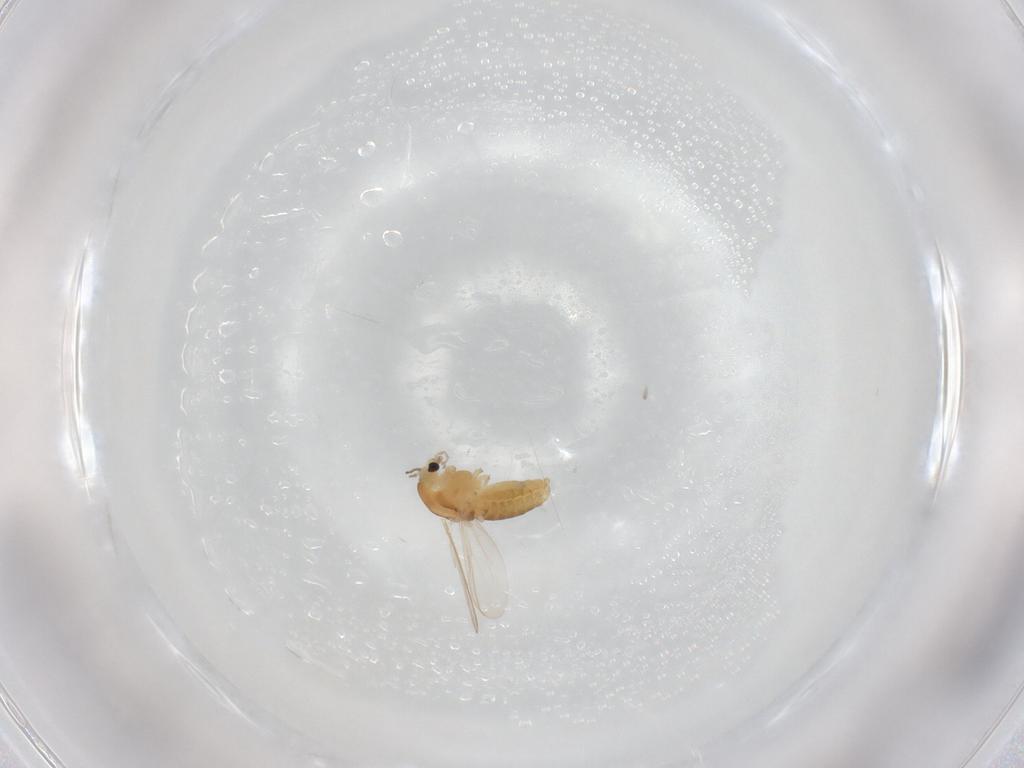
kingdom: Animalia
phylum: Arthropoda
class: Insecta
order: Diptera
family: Chironomidae
